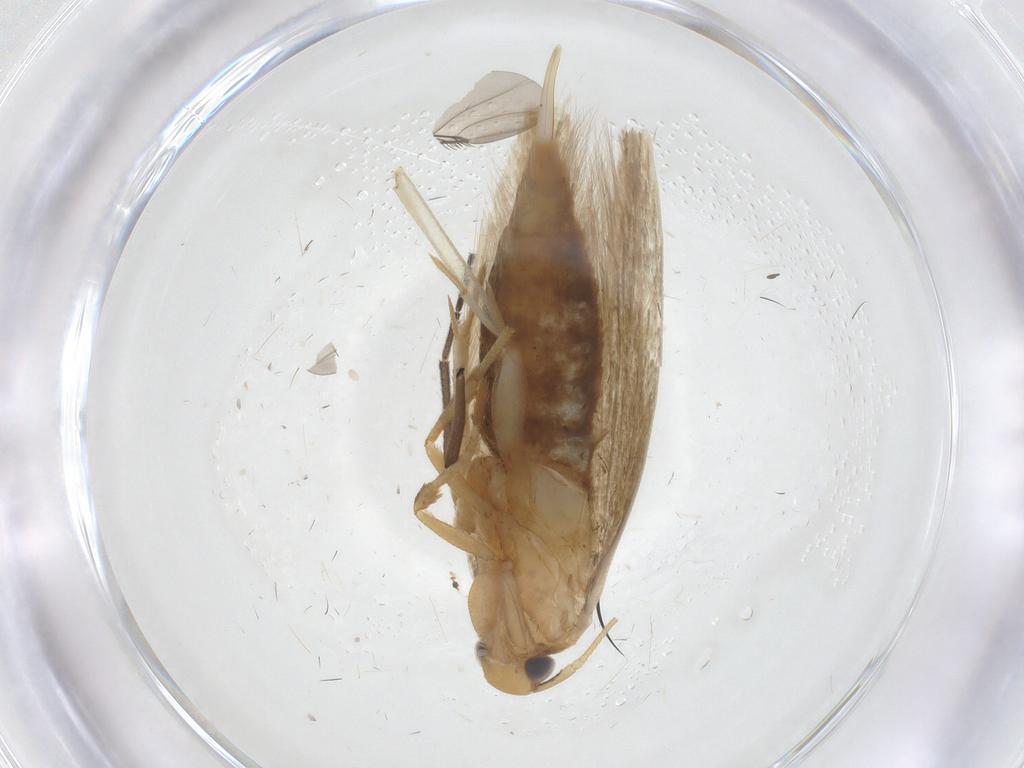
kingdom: Animalia
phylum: Arthropoda
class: Insecta
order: Lepidoptera
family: Tineidae
